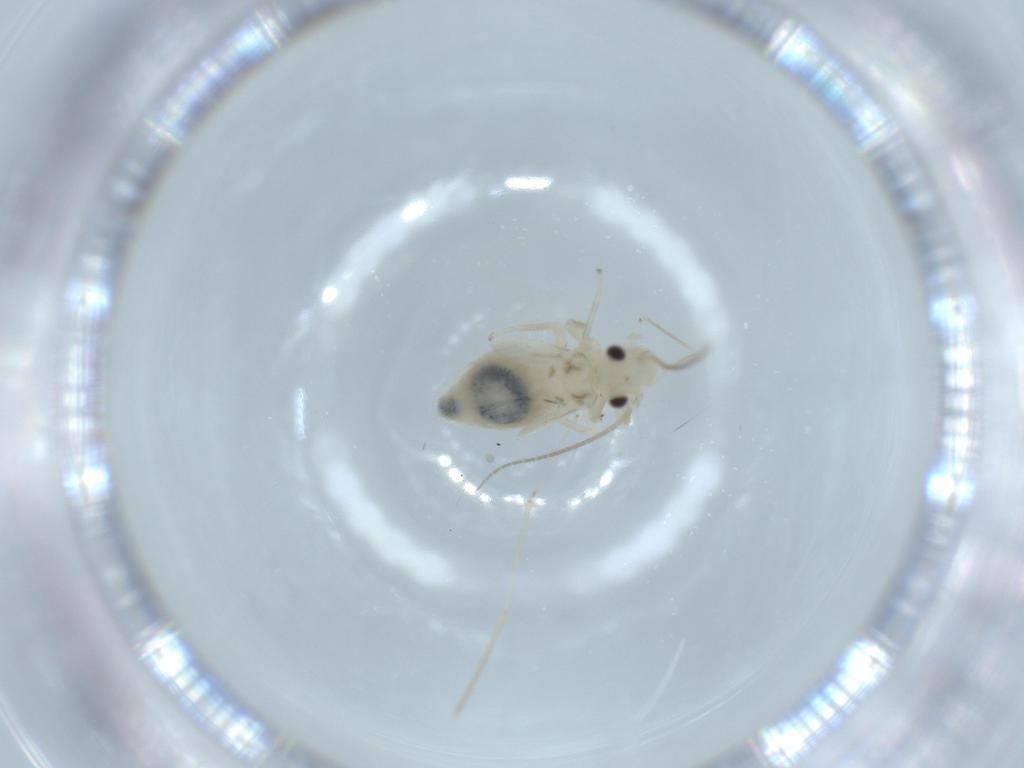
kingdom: Animalia
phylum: Arthropoda
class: Insecta
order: Psocodea
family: Caeciliusidae
